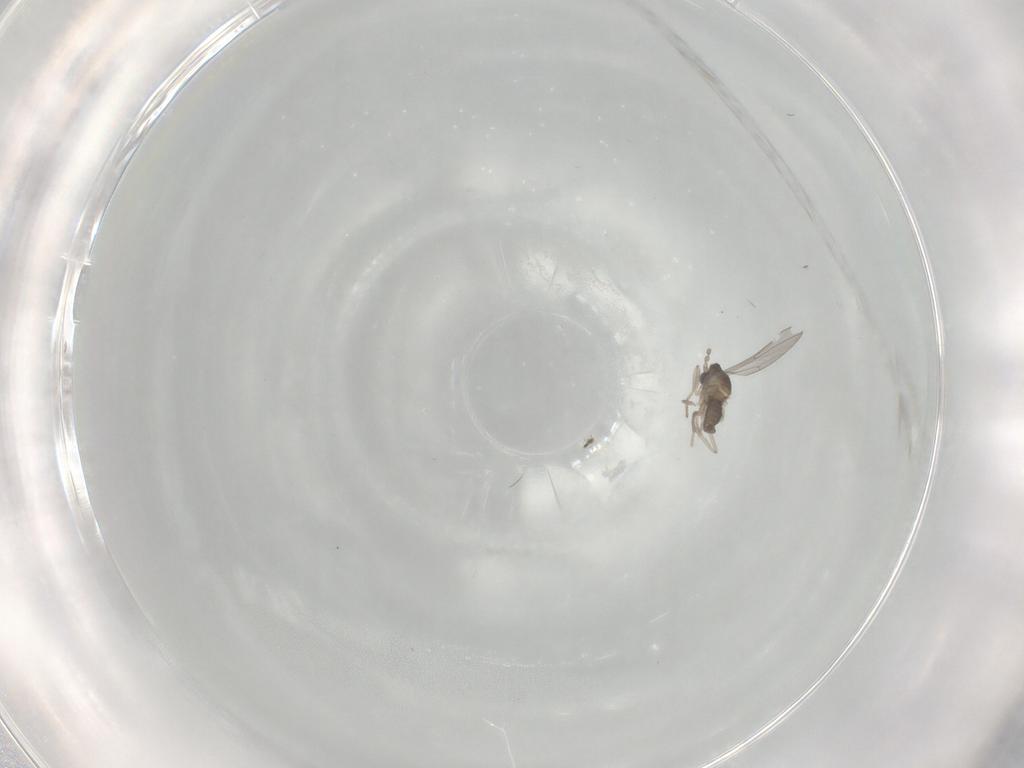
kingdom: Animalia
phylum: Arthropoda
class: Insecta
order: Diptera
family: Cecidomyiidae
